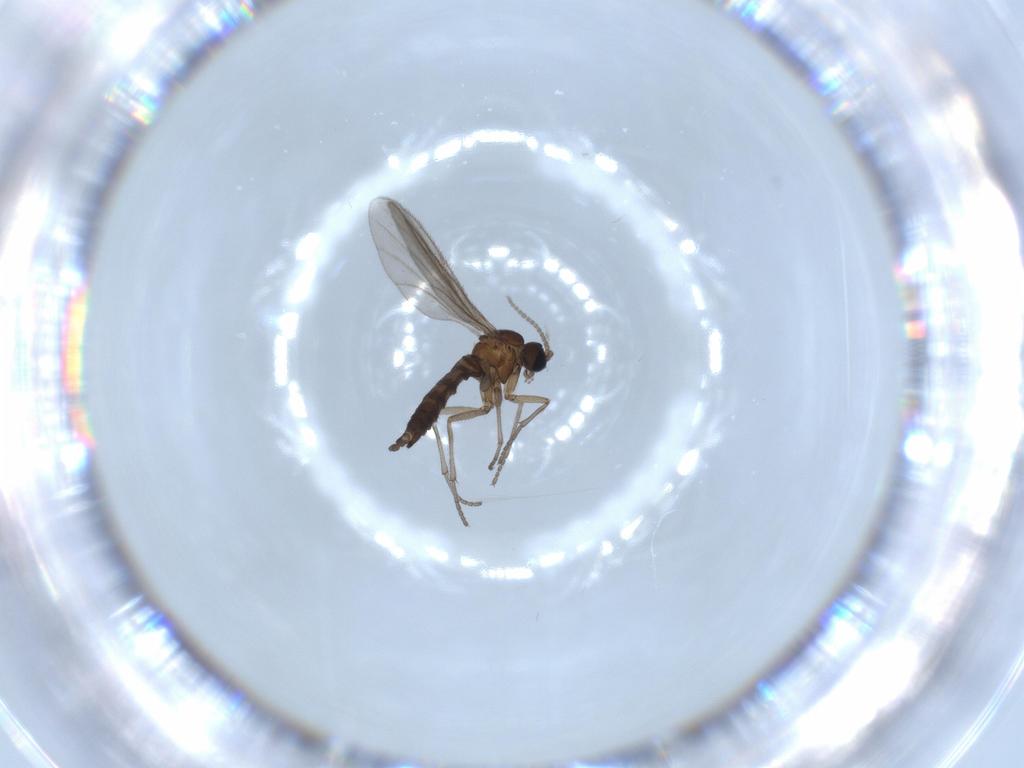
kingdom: Animalia
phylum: Arthropoda
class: Insecta
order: Diptera
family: Sciaridae
